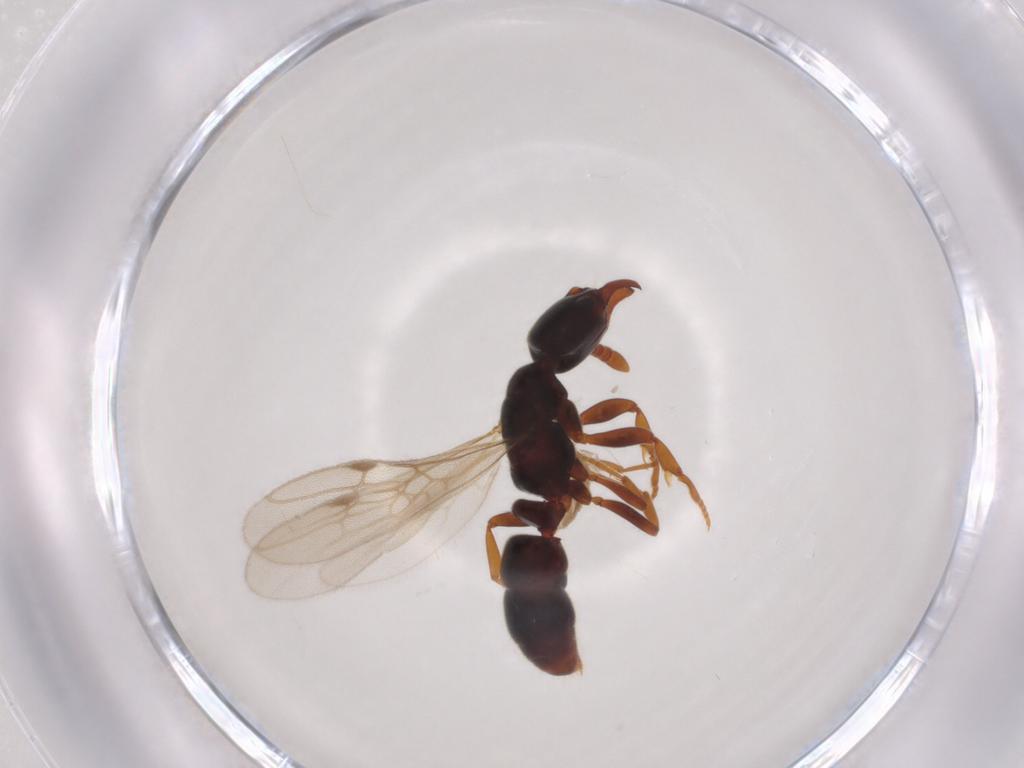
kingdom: Animalia
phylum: Arthropoda
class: Insecta
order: Hymenoptera
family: Formicidae
